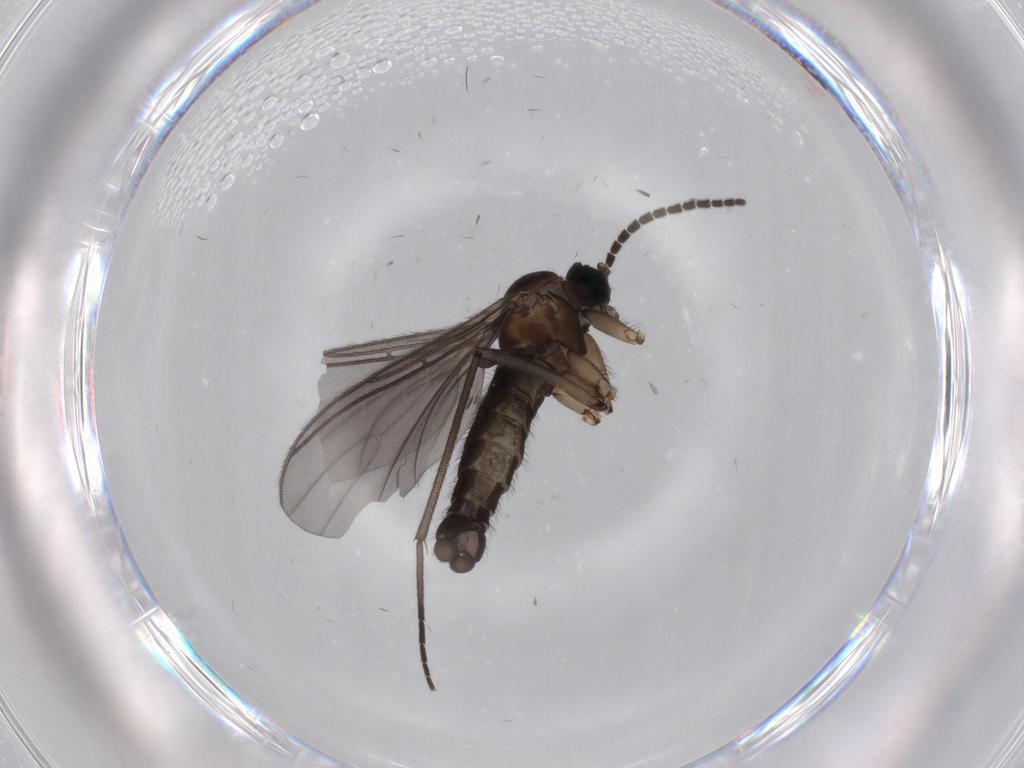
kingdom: Animalia
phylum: Arthropoda
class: Insecta
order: Diptera
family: Sciaridae
